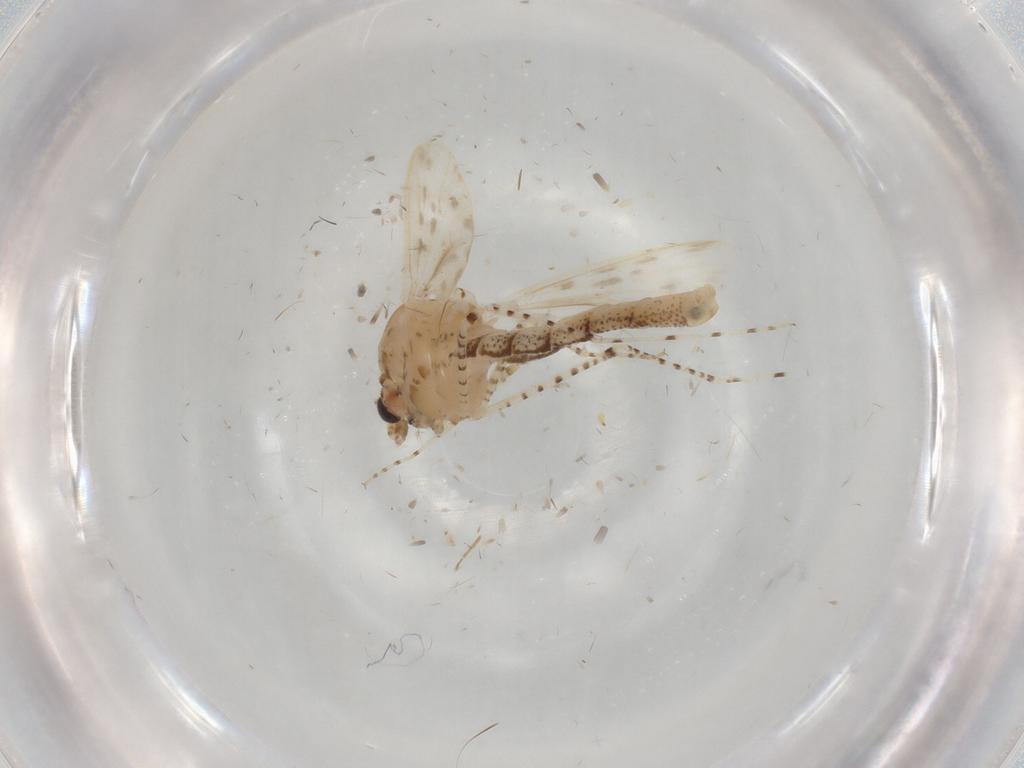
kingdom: Animalia
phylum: Arthropoda
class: Insecta
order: Diptera
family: Chaoboridae
